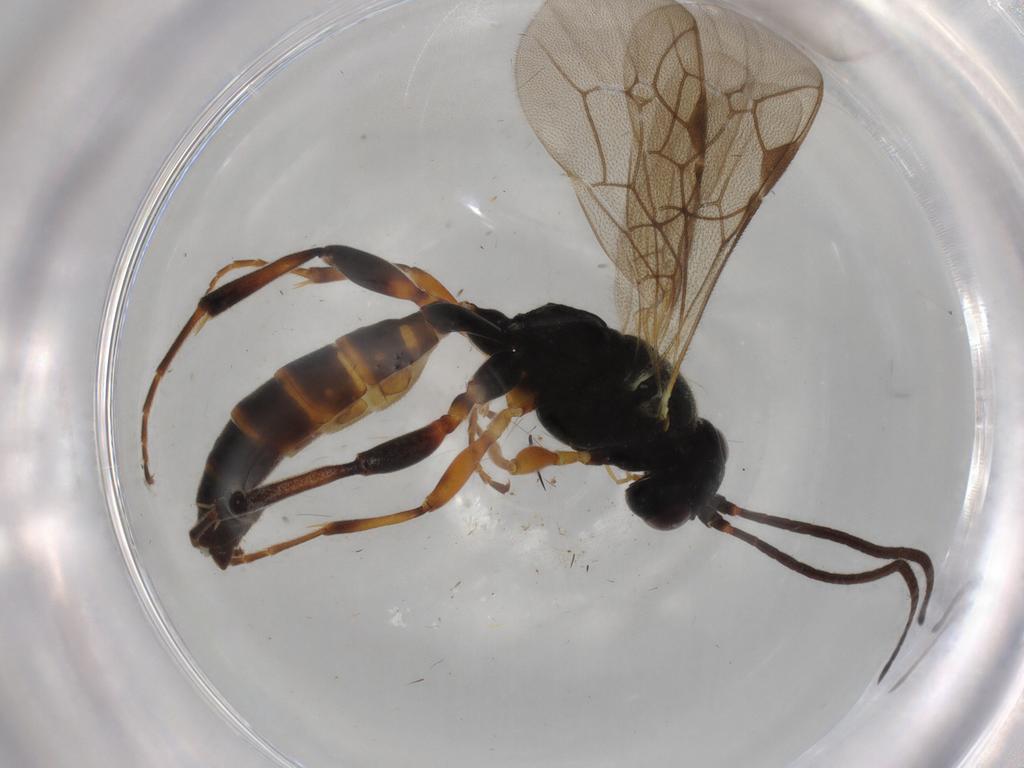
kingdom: Animalia
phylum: Arthropoda
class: Insecta
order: Hymenoptera
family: Ichneumonidae
